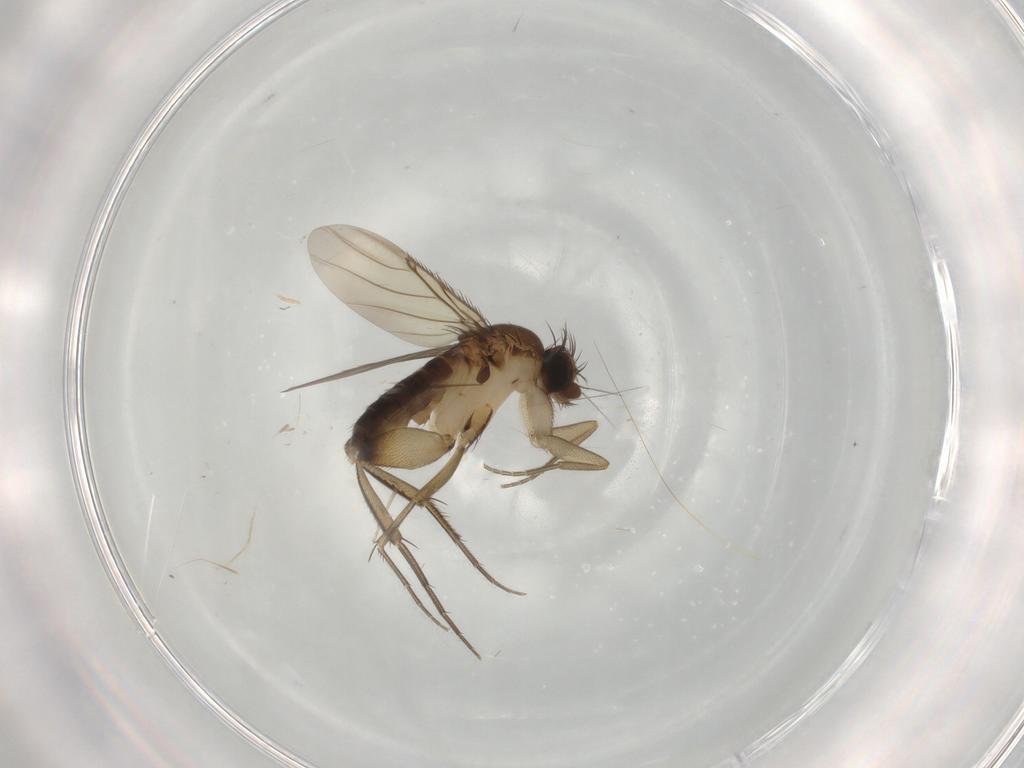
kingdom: Animalia
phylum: Arthropoda
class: Insecta
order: Diptera
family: Phoridae
